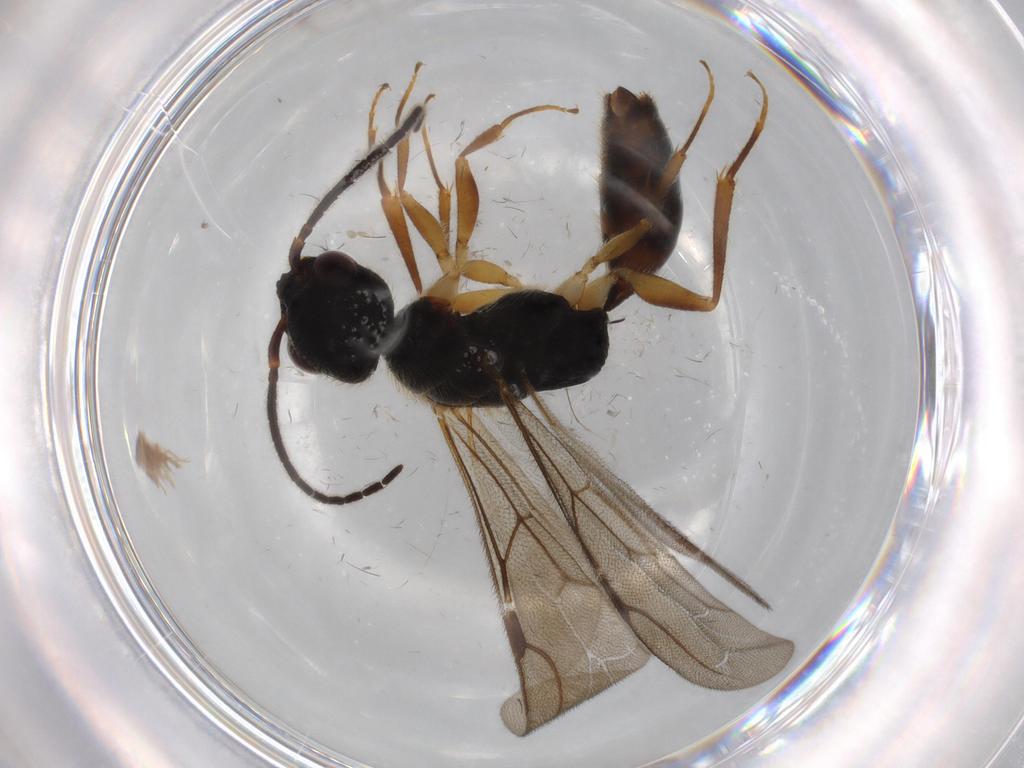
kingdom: Animalia
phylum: Arthropoda
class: Insecta
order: Hymenoptera
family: Bethylidae
